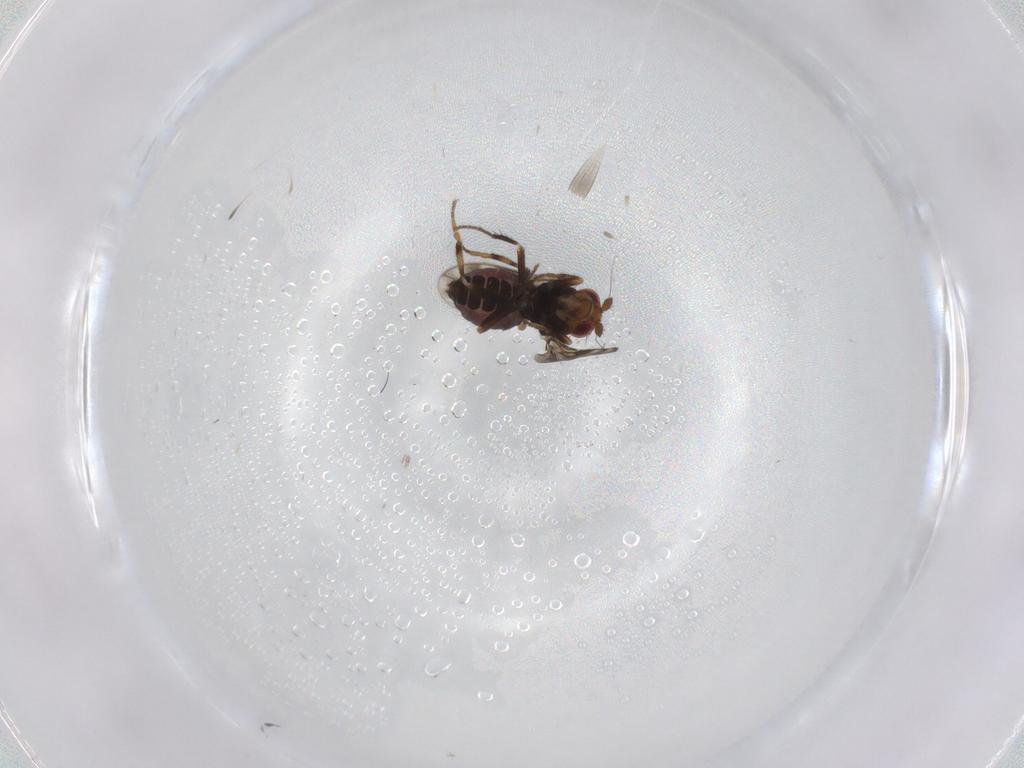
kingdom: Animalia
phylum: Arthropoda
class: Insecta
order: Diptera
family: Sphaeroceridae
